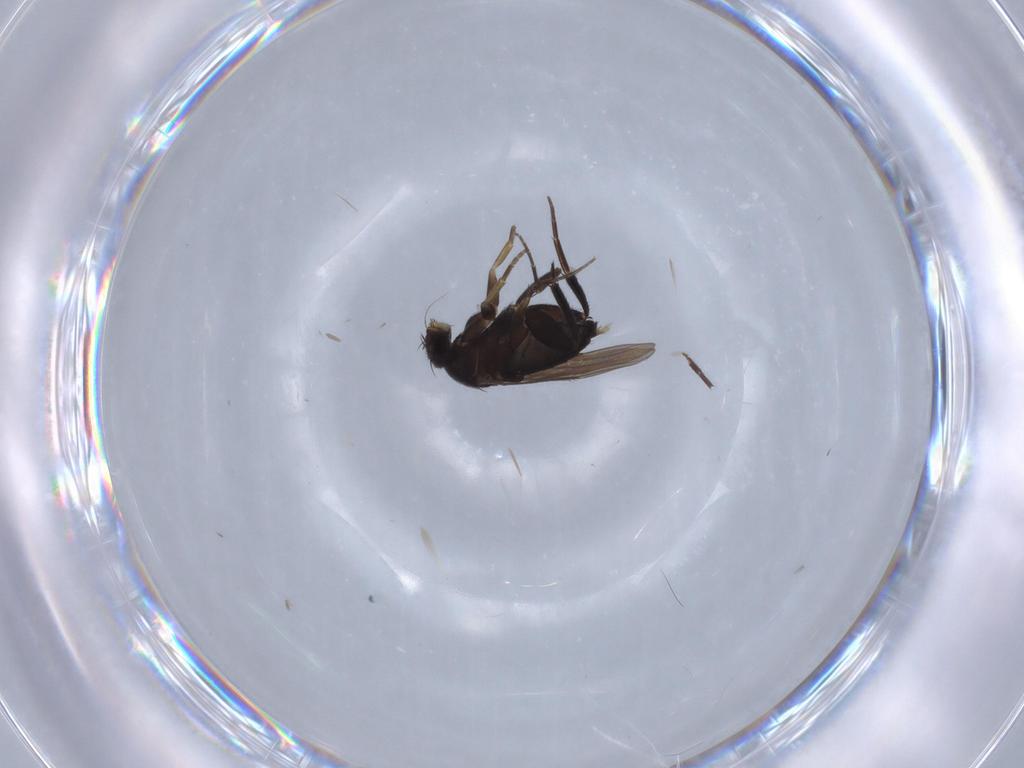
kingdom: Animalia
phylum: Arthropoda
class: Insecta
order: Diptera
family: Phoridae
